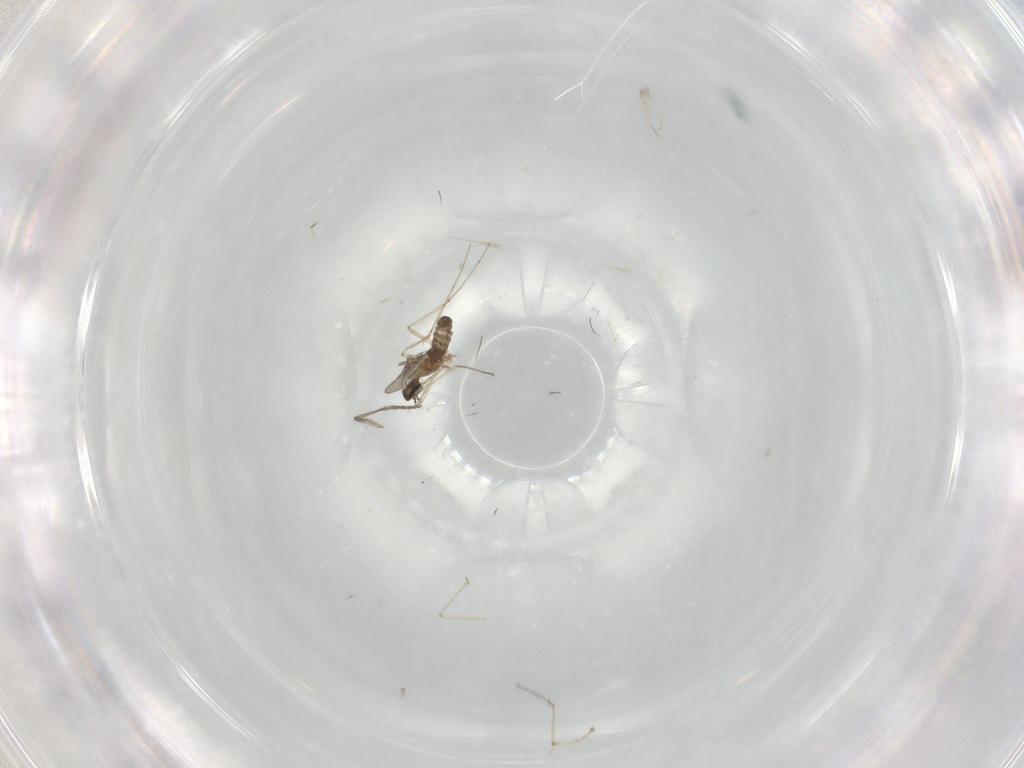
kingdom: Animalia
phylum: Arthropoda
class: Insecta
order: Diptera
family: Cecidomyiidae
